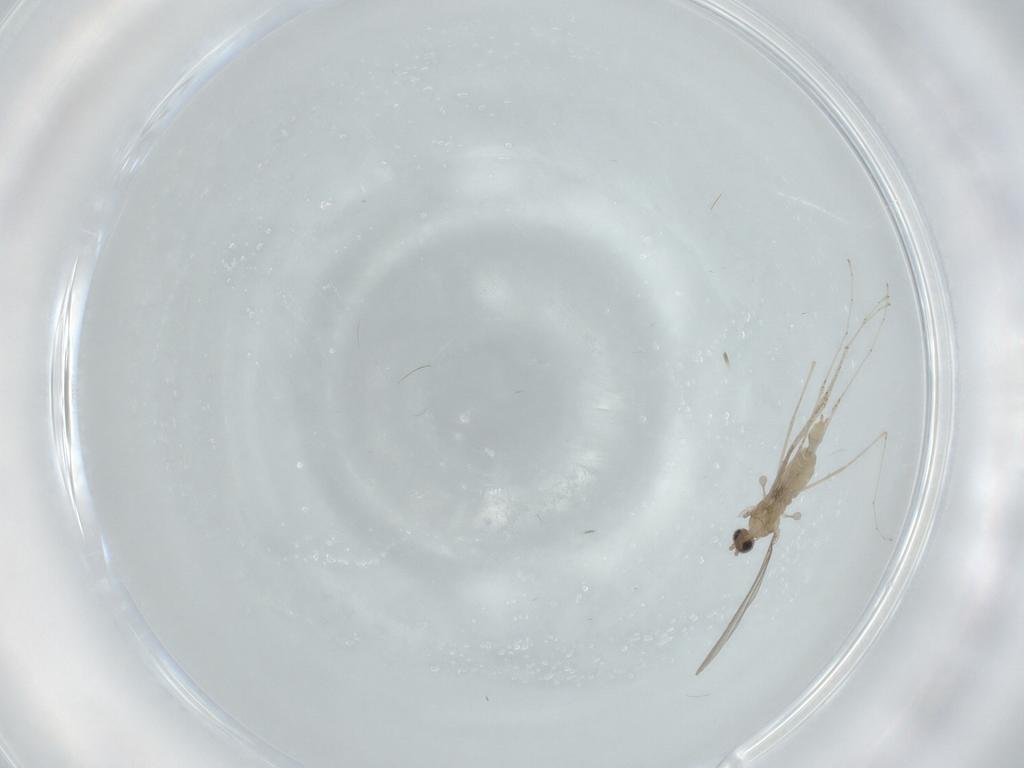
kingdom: Animalia
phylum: Arthropoda
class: Insecta
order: Diptera
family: Cecidomyiidae
